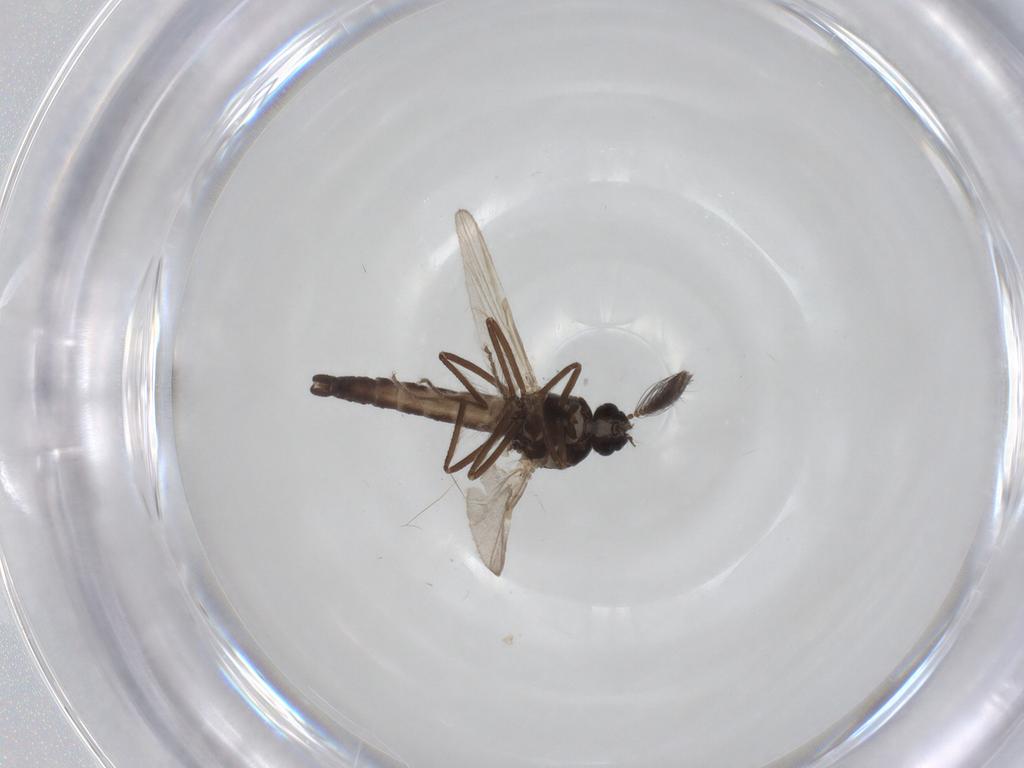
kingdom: Animalia
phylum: Arthropoda
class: Insecta
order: Diptera
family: Ceratopogonidae
